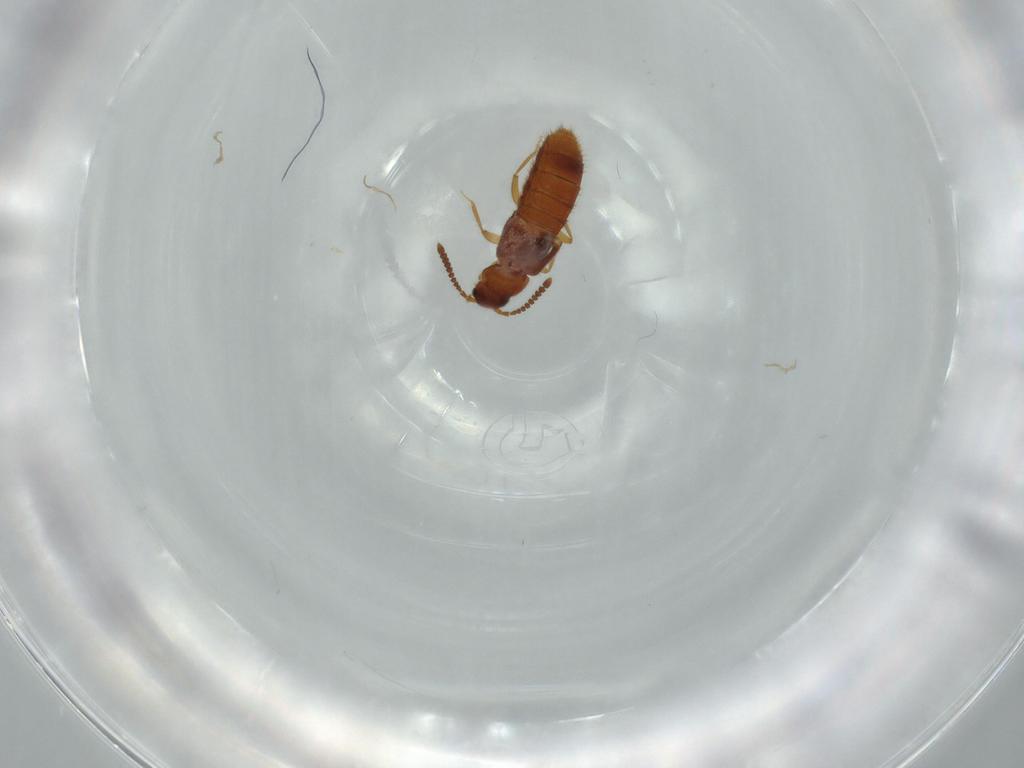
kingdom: Animalia
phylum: Arthropoda
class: Insecta
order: Coleoptera
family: Staphylinidae
